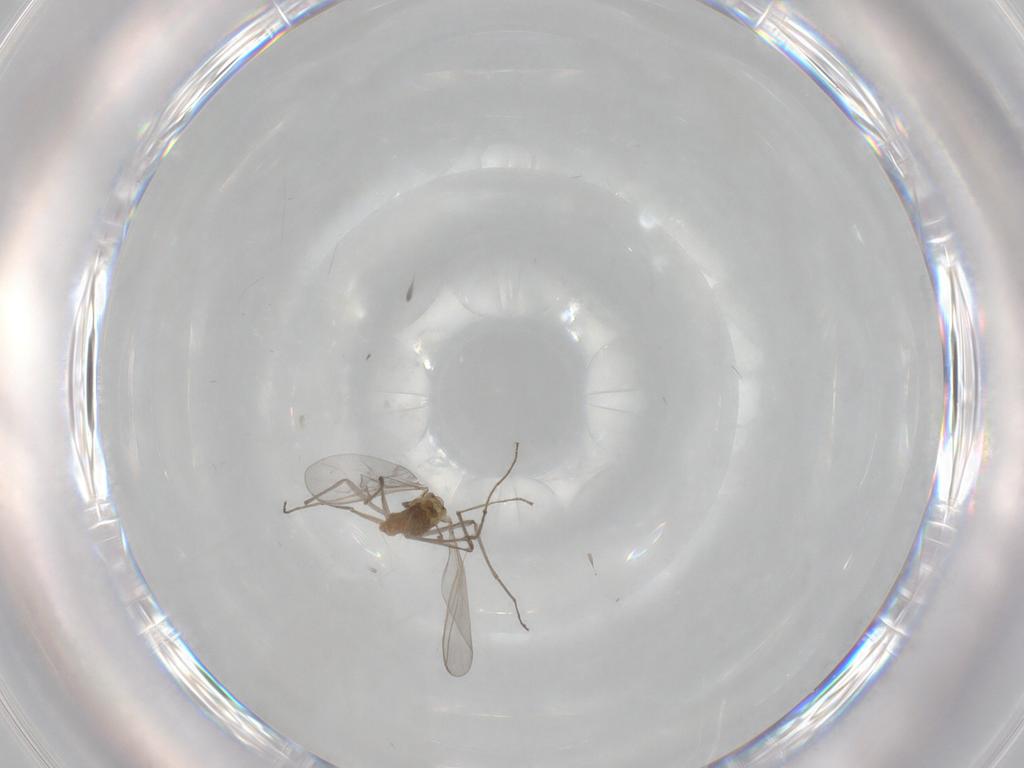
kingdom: Animalia
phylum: Arthropoda
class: Insecta
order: Diptera
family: Chironomidae
